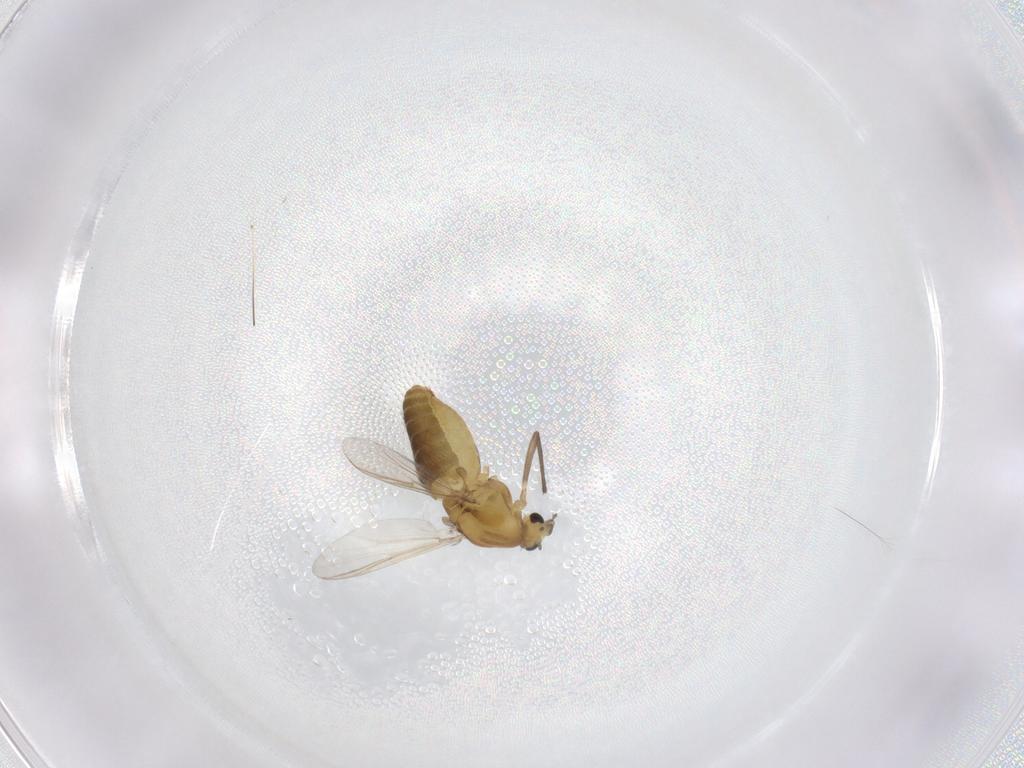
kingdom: Animalia
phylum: Arthropoda
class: Insecta
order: Diptera
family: Chironomidae
